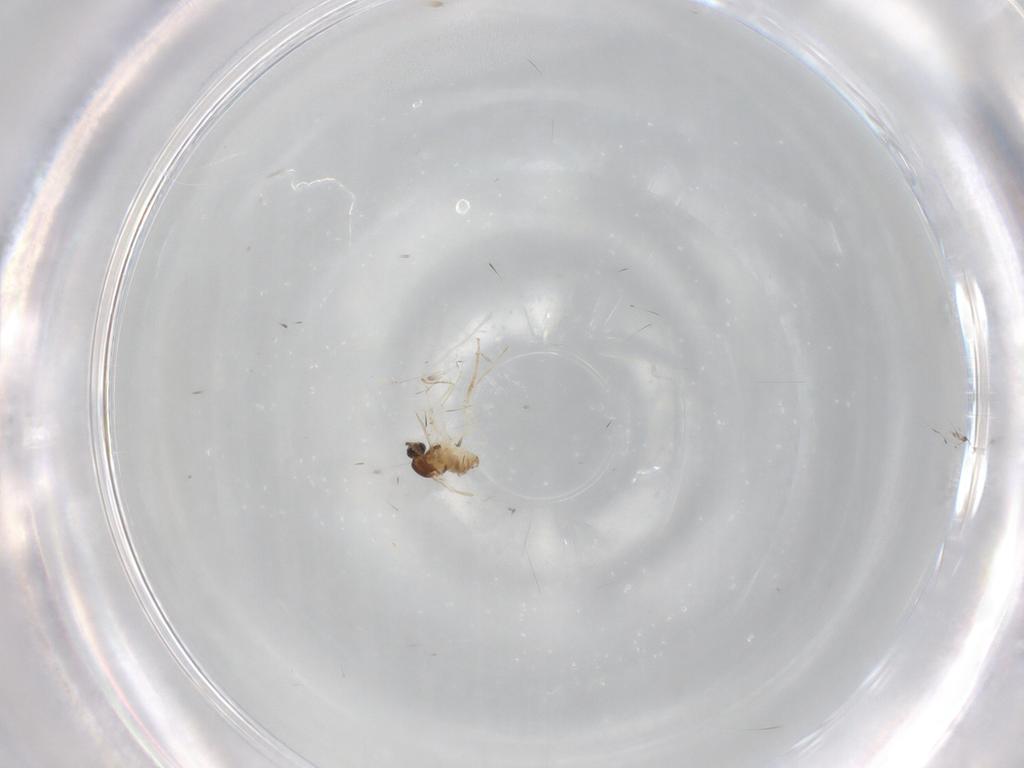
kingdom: Animalia
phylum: Arthropoda
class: Insecta
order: Diptera
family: Cecidomyiidae
